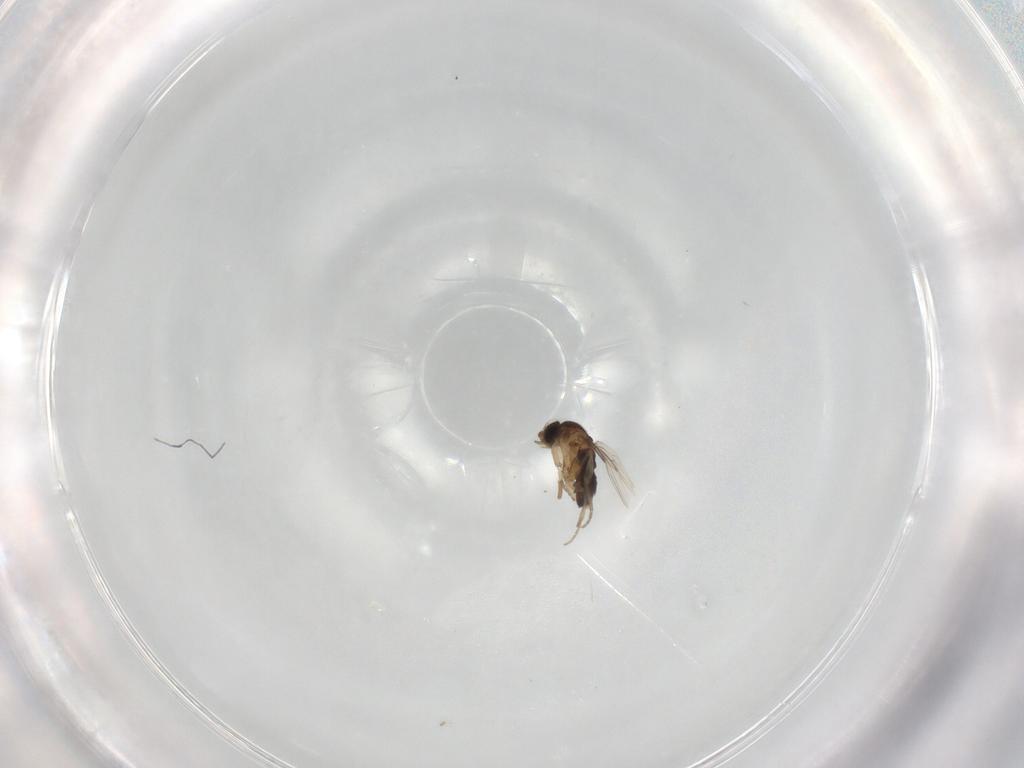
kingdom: Animalia
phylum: Arthropoda
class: Insecta
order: Diptera
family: Phoridae
